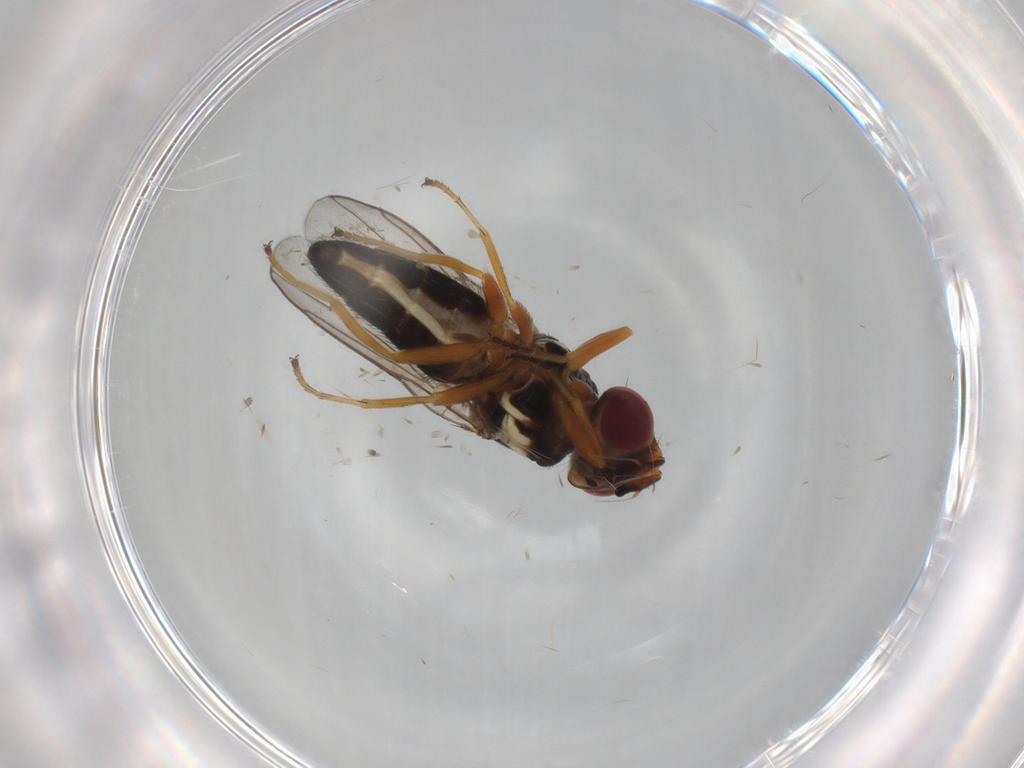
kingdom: Animalia
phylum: Arthropoda
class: Insecta
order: Diptera
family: Chloropidae
